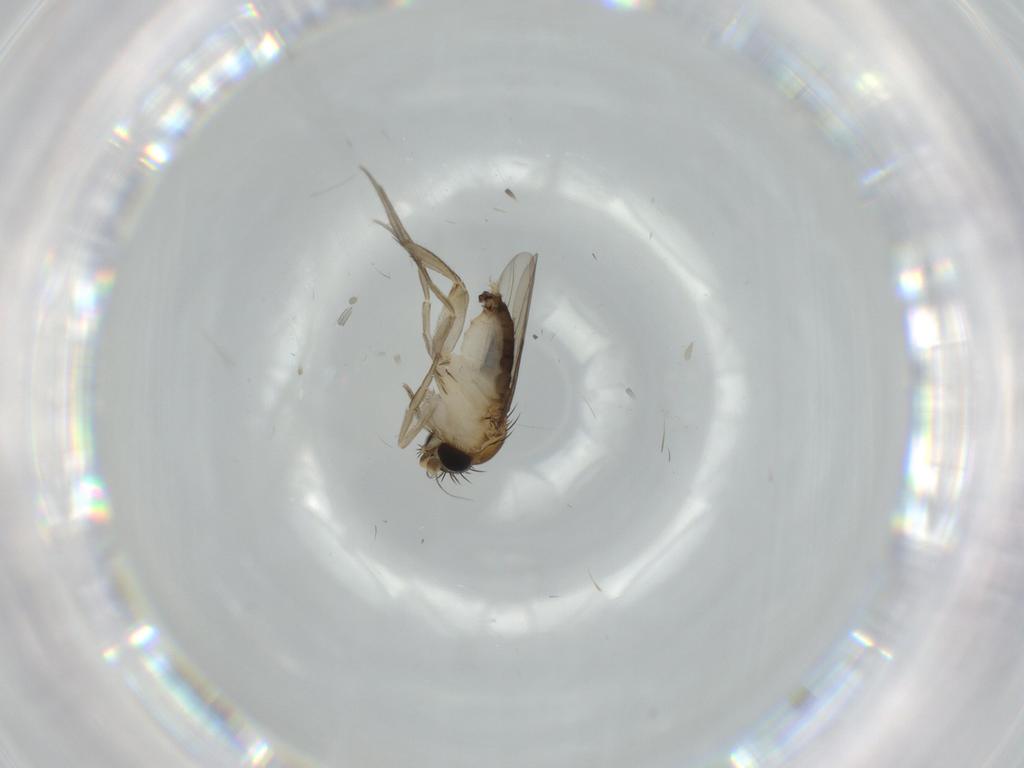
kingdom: Animalia
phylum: Arthropoda
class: Insecta
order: Diptera
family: Phoridae
